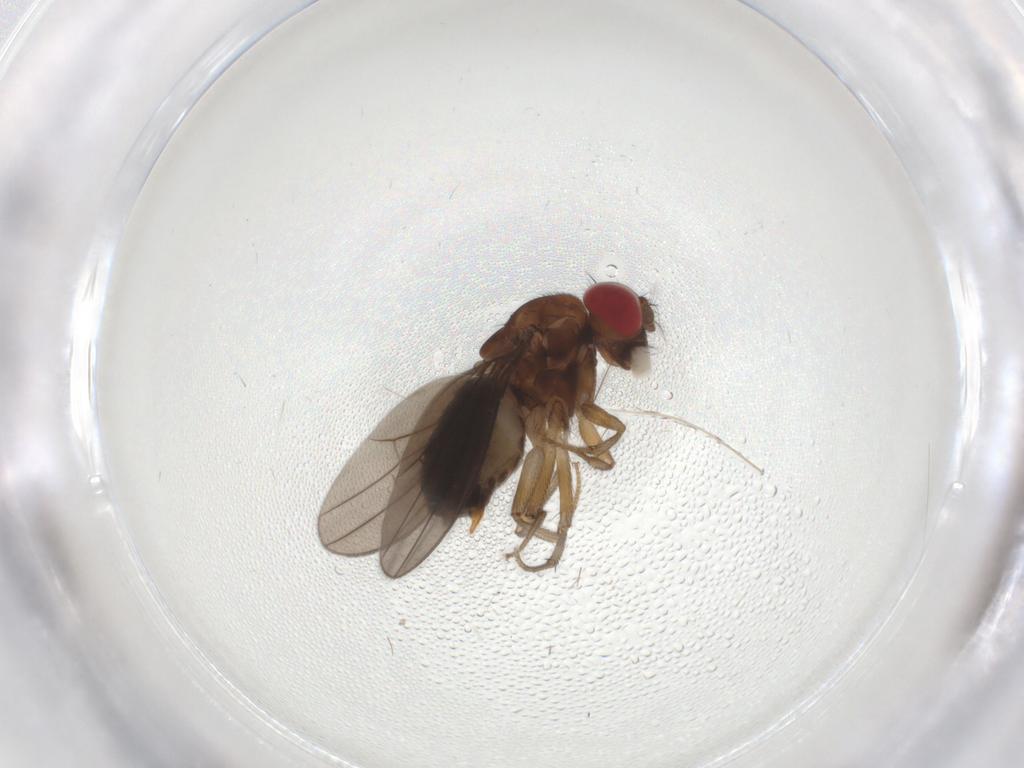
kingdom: Animalia
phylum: Arthropoda
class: Insecta
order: Diptera
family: Drosophilidae
